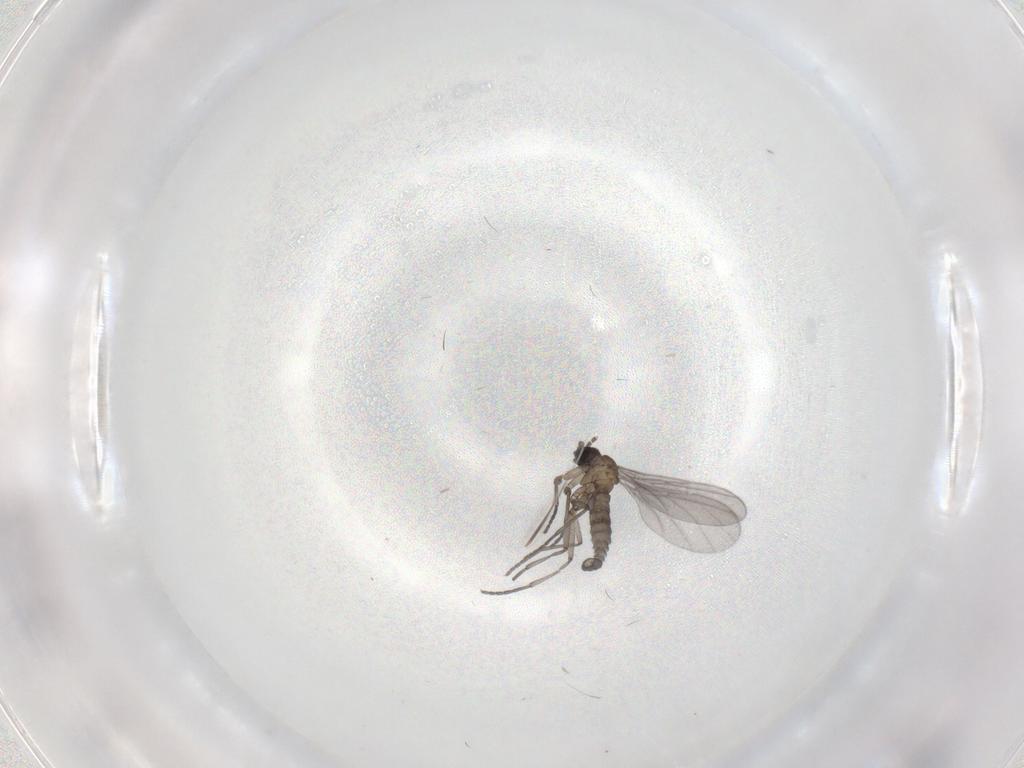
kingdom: Animalia
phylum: Arthropoda
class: Insecta
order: Diptera
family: Sciaridae
